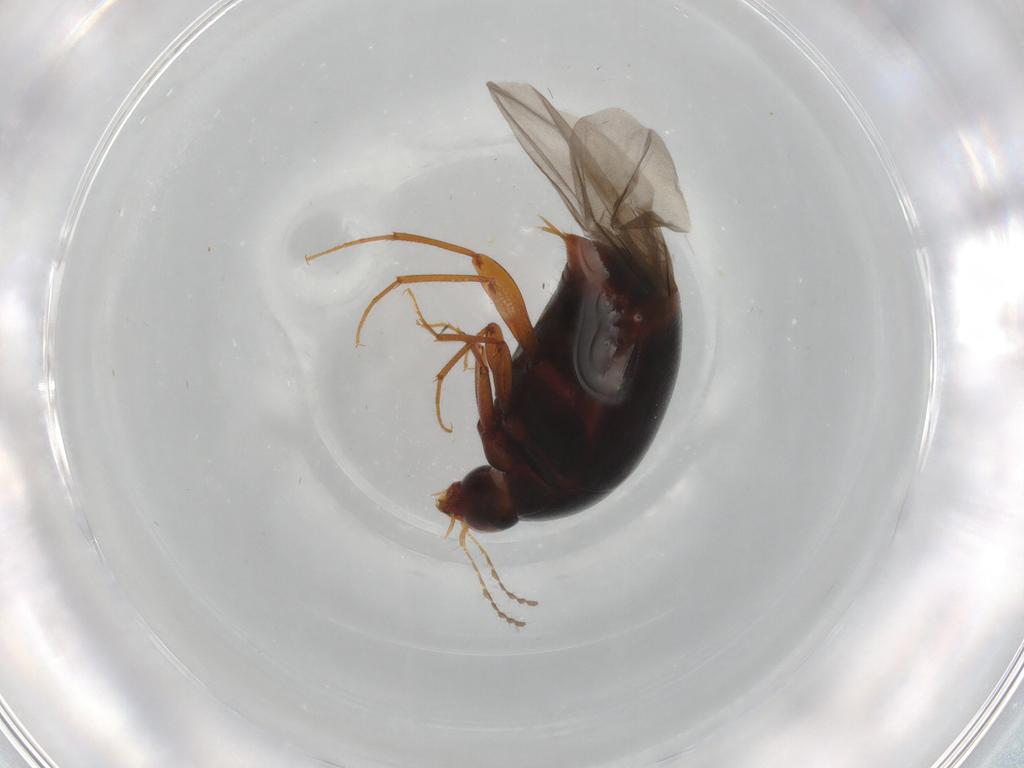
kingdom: Animalia
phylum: Arthropoda
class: Insecta
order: Coleoptera
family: Staphylinidae
